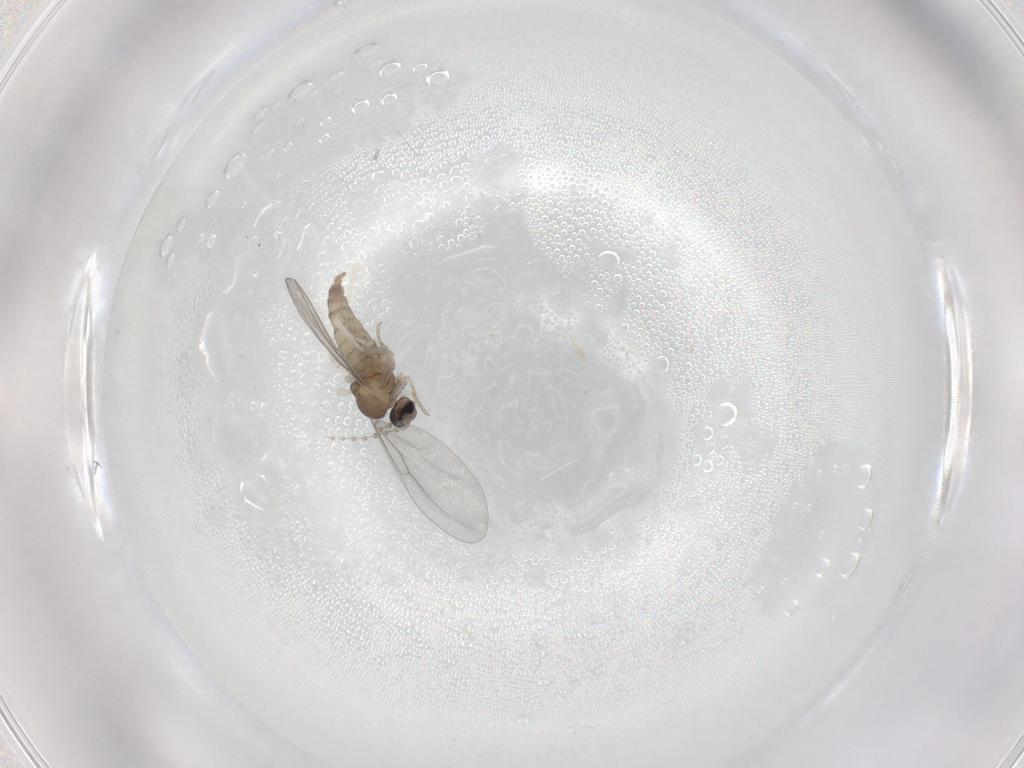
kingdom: Animalia
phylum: Arthropoda
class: Insecta
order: Diptera
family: Cecidomyiidae
